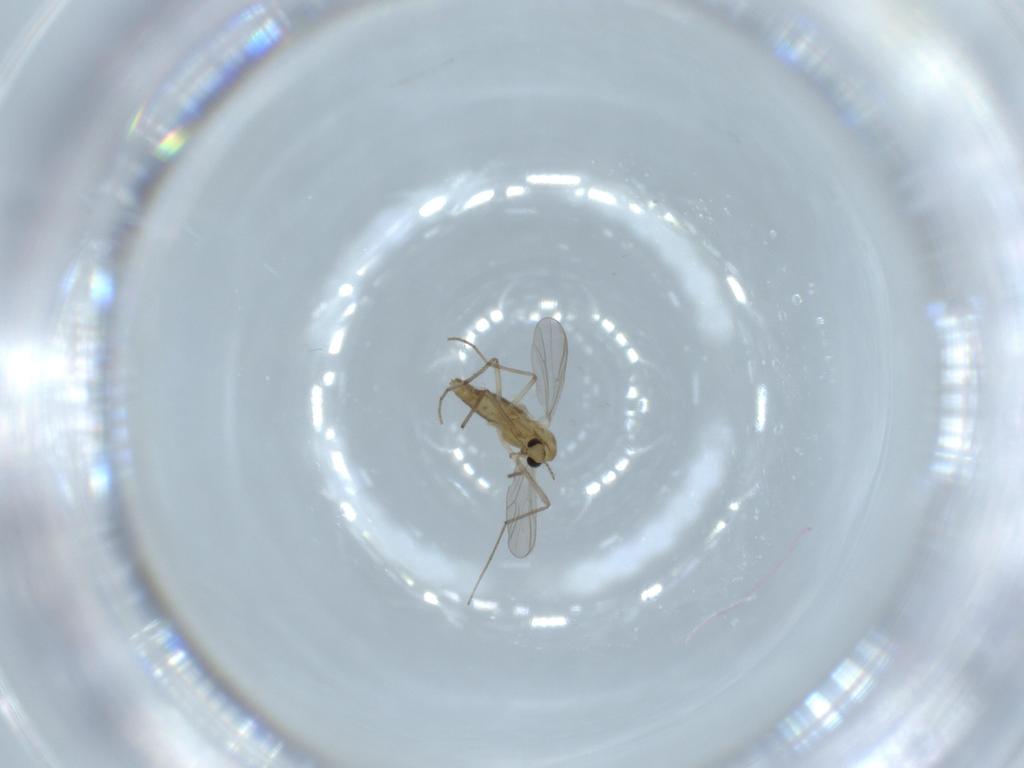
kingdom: Animalia
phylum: Arthropoda
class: Insecta
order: Diptera
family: Chironomidae
